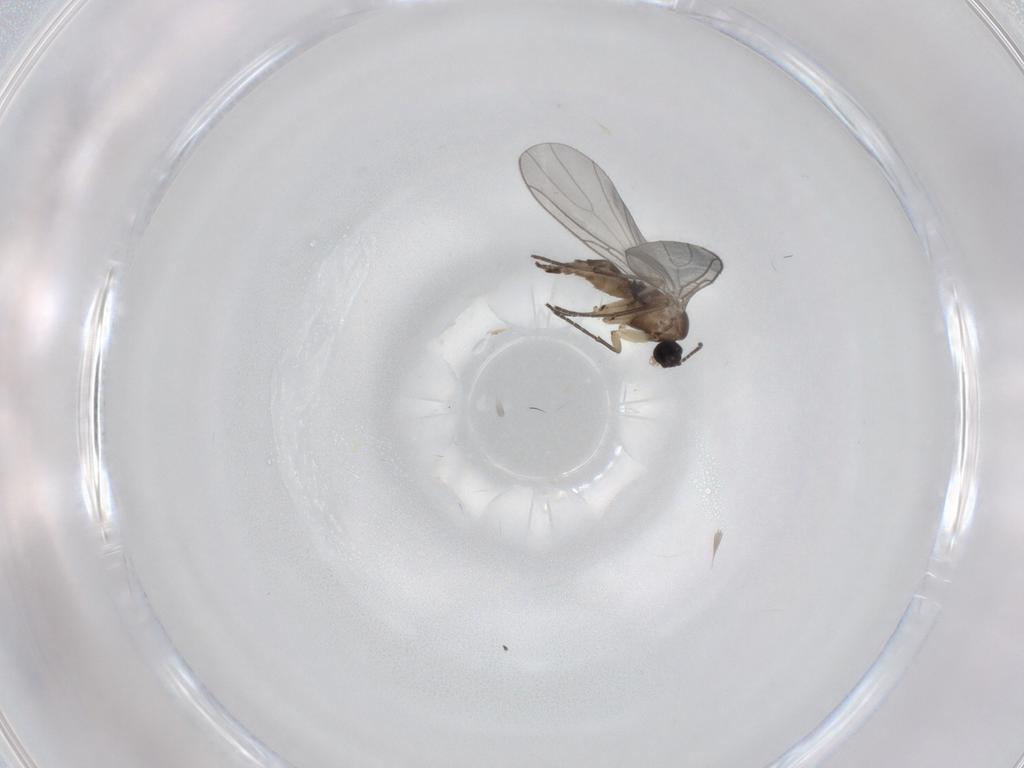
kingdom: Animalia
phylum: Arthropoda
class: Insecta
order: Diptera
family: Sciaridae
